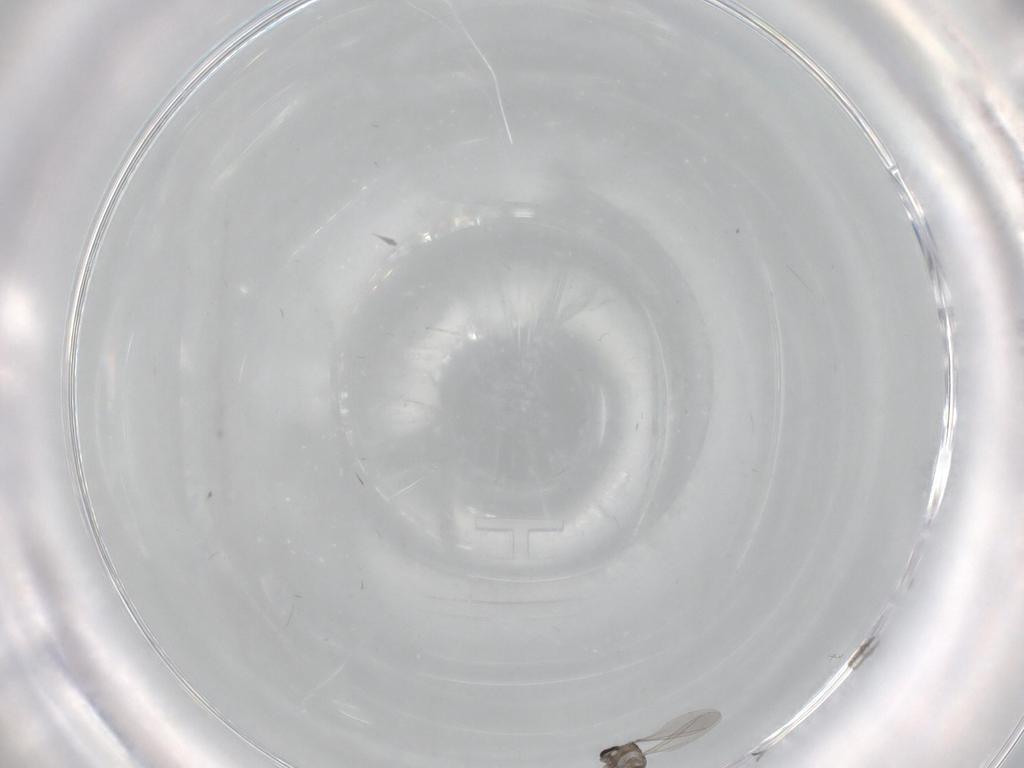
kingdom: Animalia
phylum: Arthropoda
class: Insecta
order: Diptera
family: Cecidomyiidae
